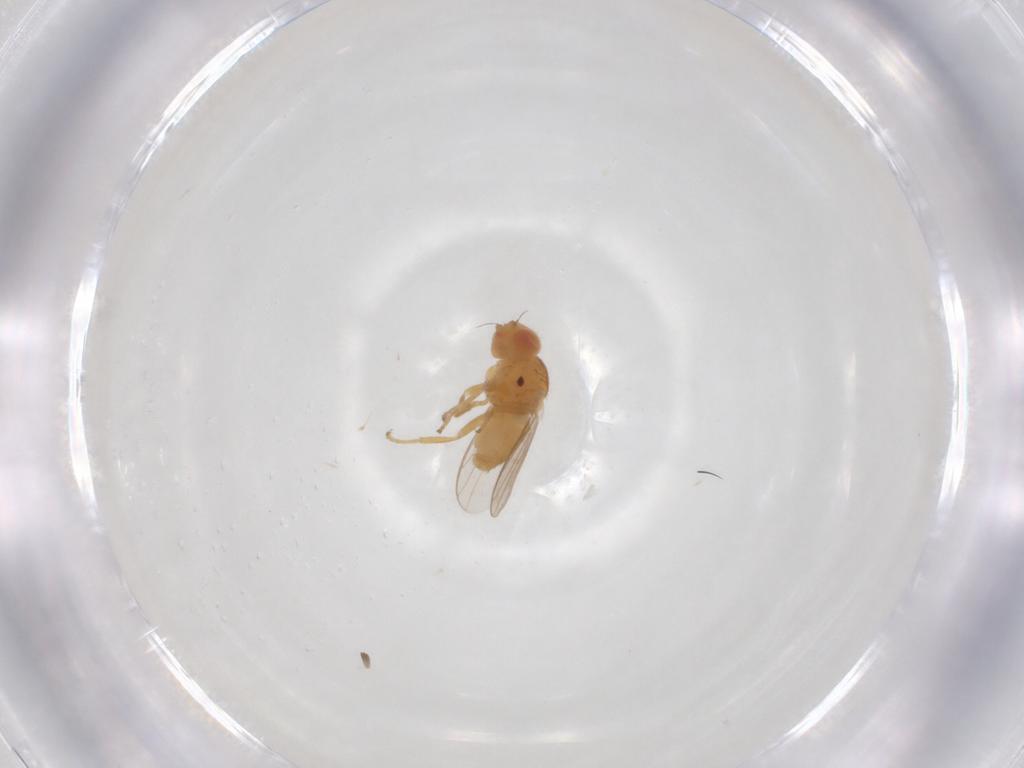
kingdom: Animalia
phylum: Arthropoda
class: Insecta
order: Diptera
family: Chloropidae
